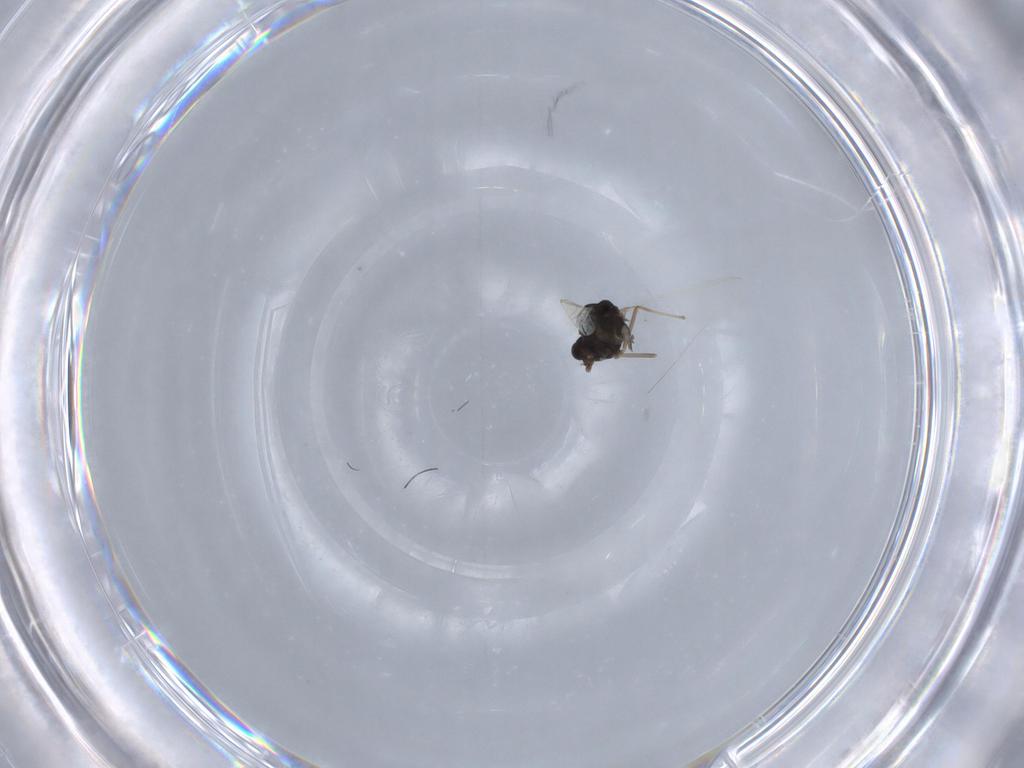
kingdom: Animalia
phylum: Arthropoda
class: Insecta
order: Diptera
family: Chironomidae
